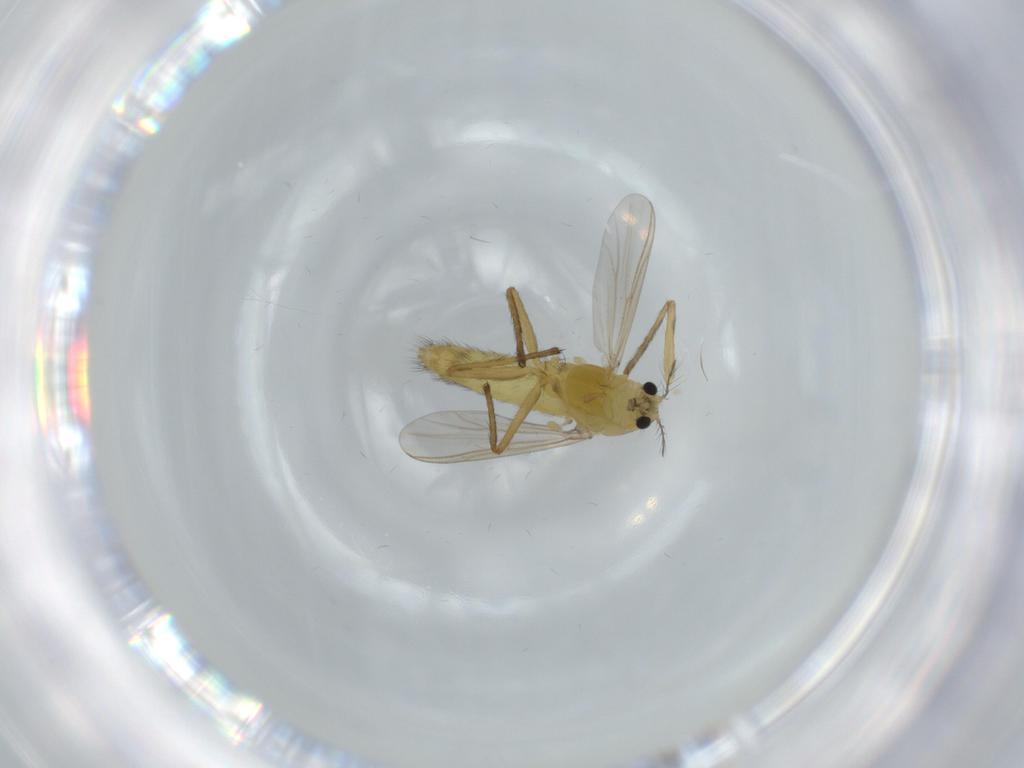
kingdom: Animalia
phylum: Arthropoda
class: Insecta
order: Diptera
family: Chironomidae
